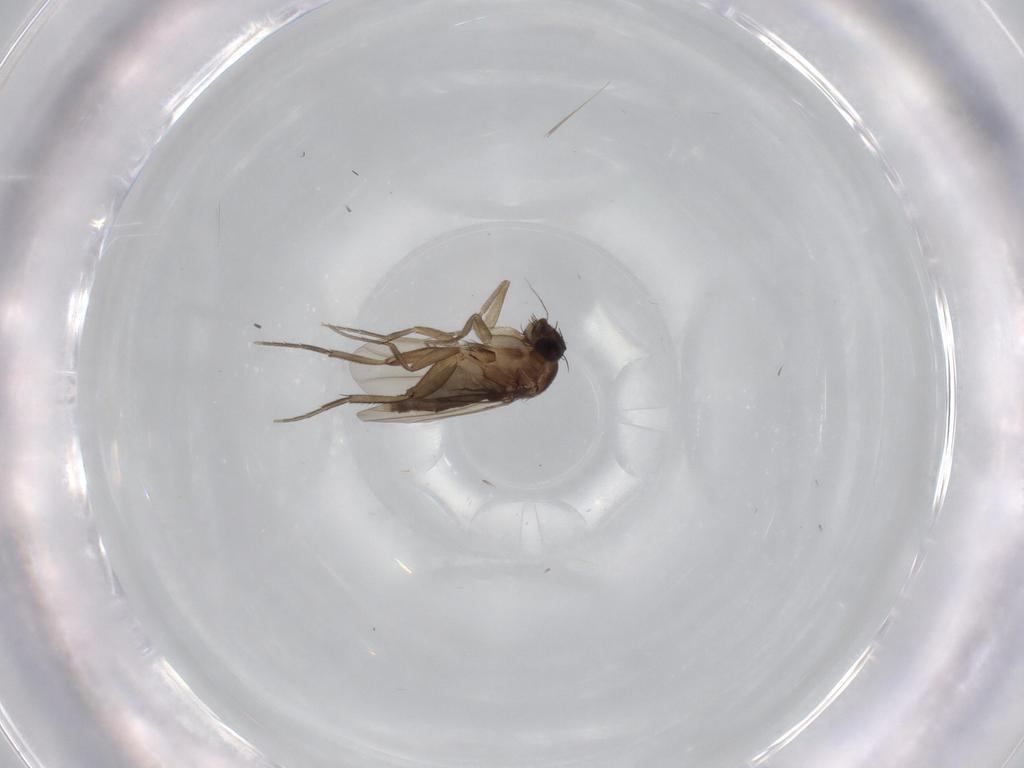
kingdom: Animalia
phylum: Arthropoda
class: Insecta
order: Diptera
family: Phoridae
